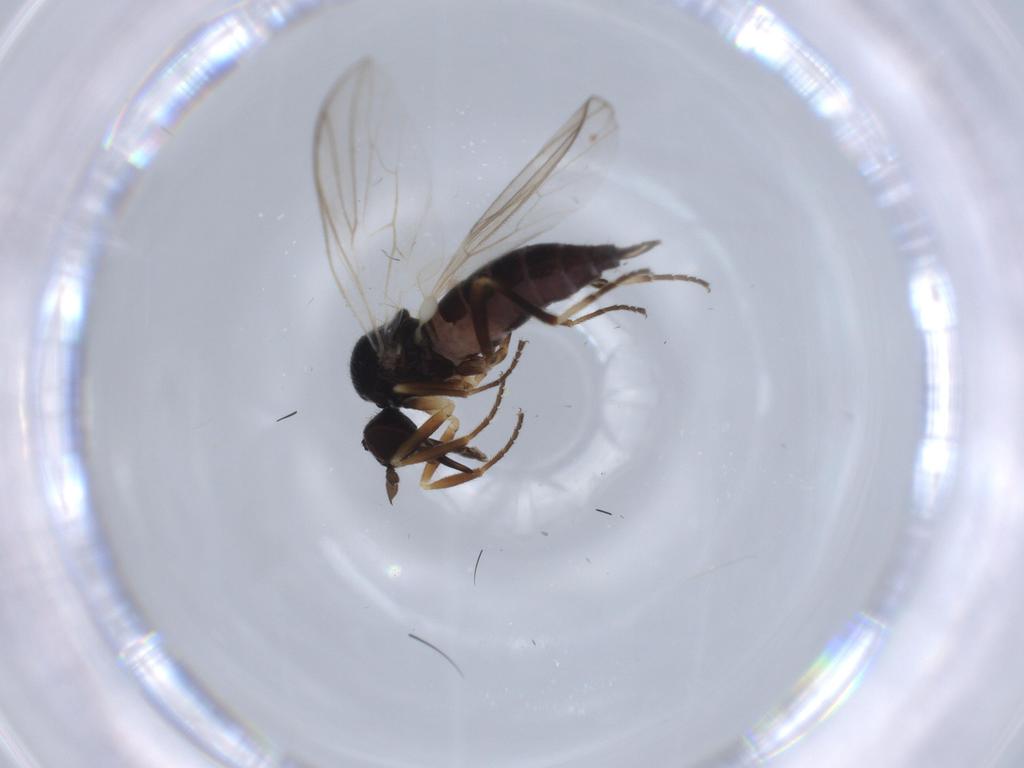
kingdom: Animalia
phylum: Arthropoda
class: Insecta
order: Diptera
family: Hybotidae
